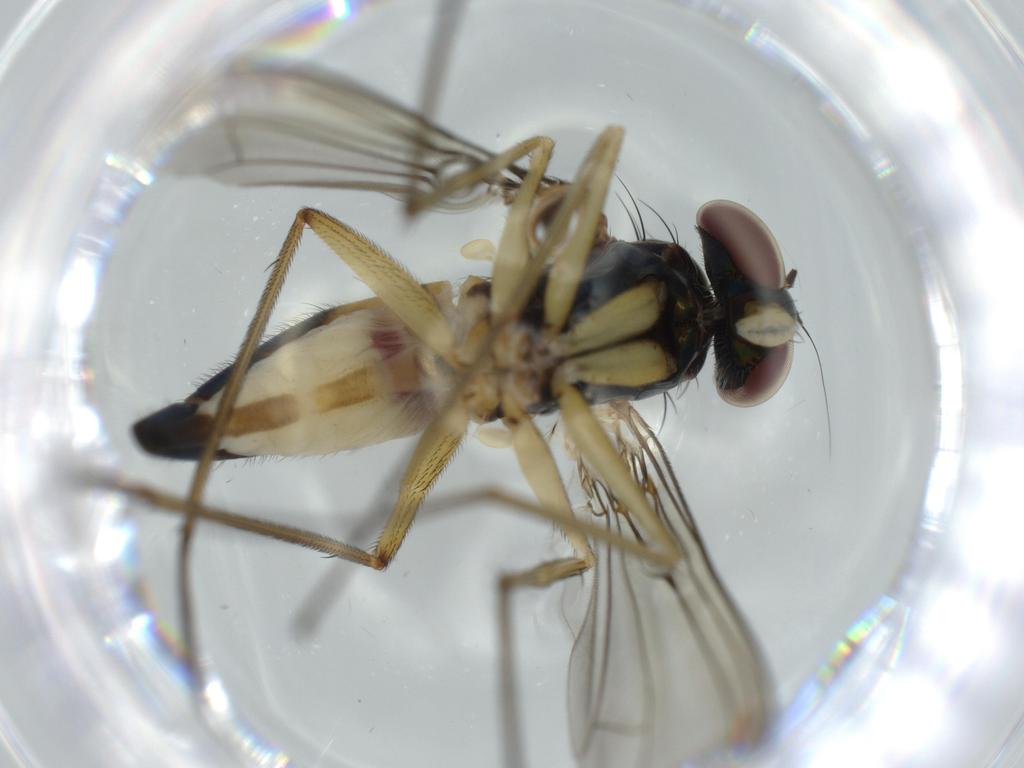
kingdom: Animalia
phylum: Arthropoda
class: Insecta
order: Diptera
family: Dolichopodidae
